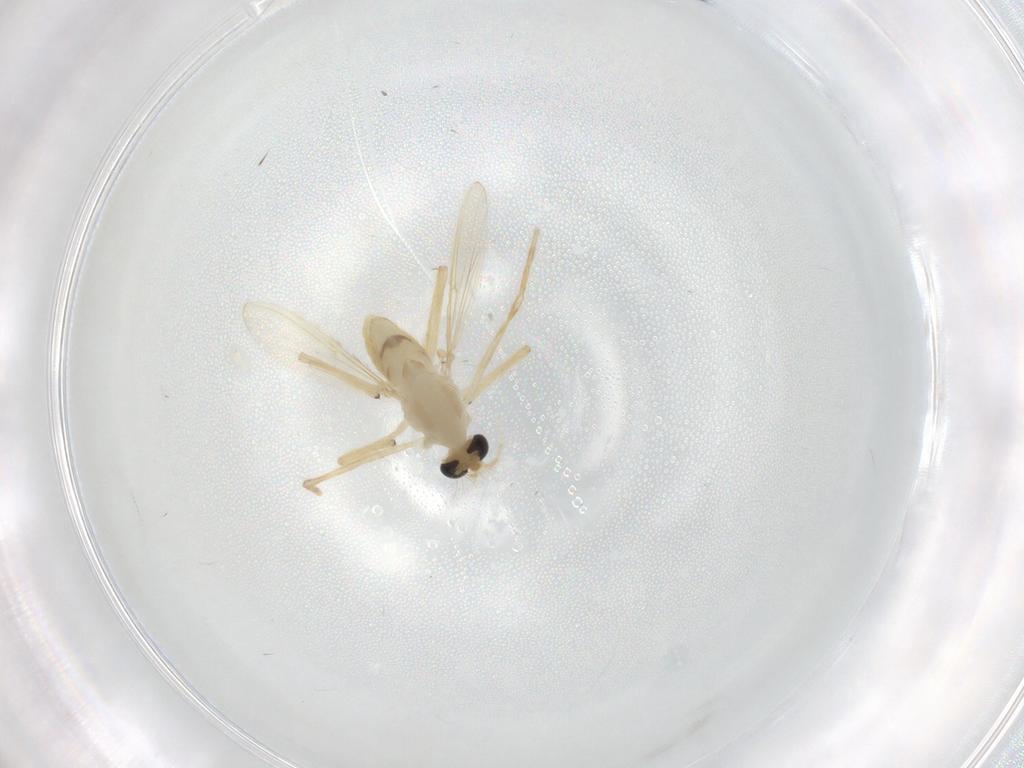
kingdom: Animalia
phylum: Arthropoda
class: Insecta
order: Diptera
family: Chironomidae
